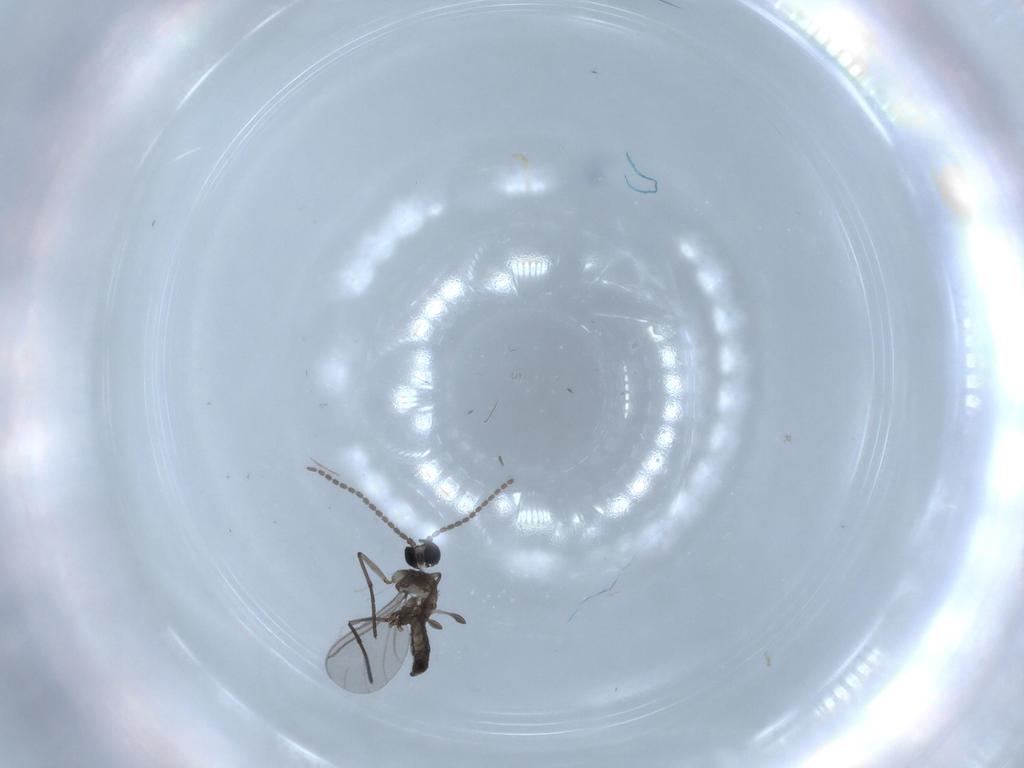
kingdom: Animalia
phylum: Arthropoda
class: Insecta
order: Diptera
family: Sciaridae
